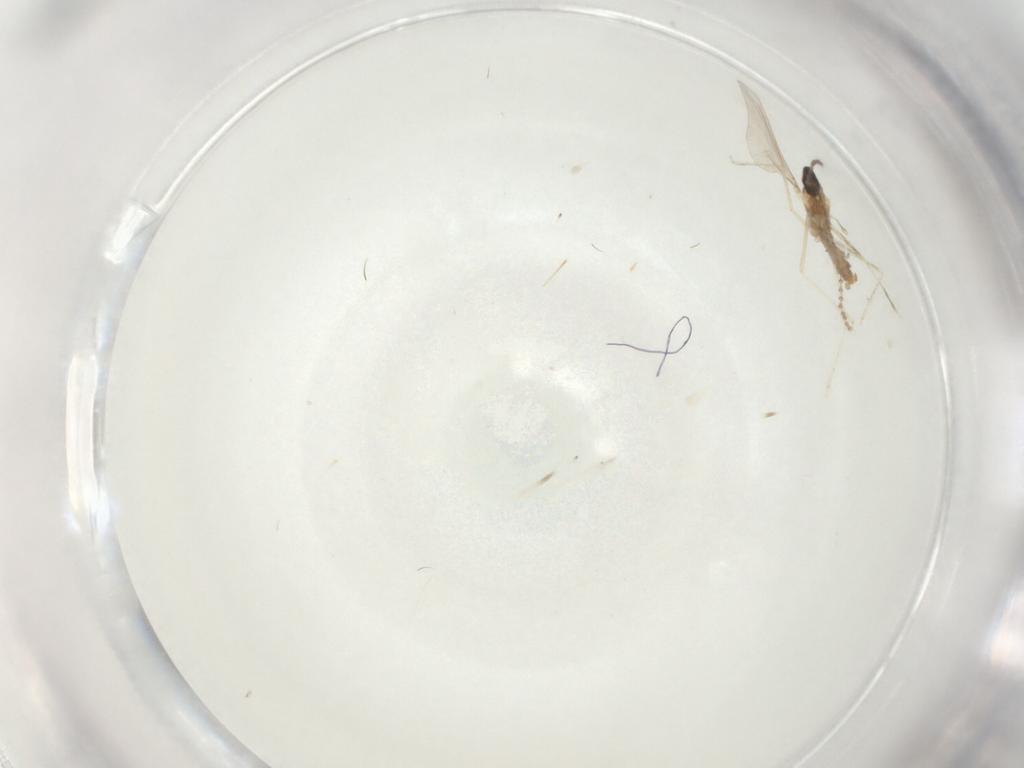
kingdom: Animalia
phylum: Arthropoda
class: Insecta
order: Diptera
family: Cecidomyiidae
